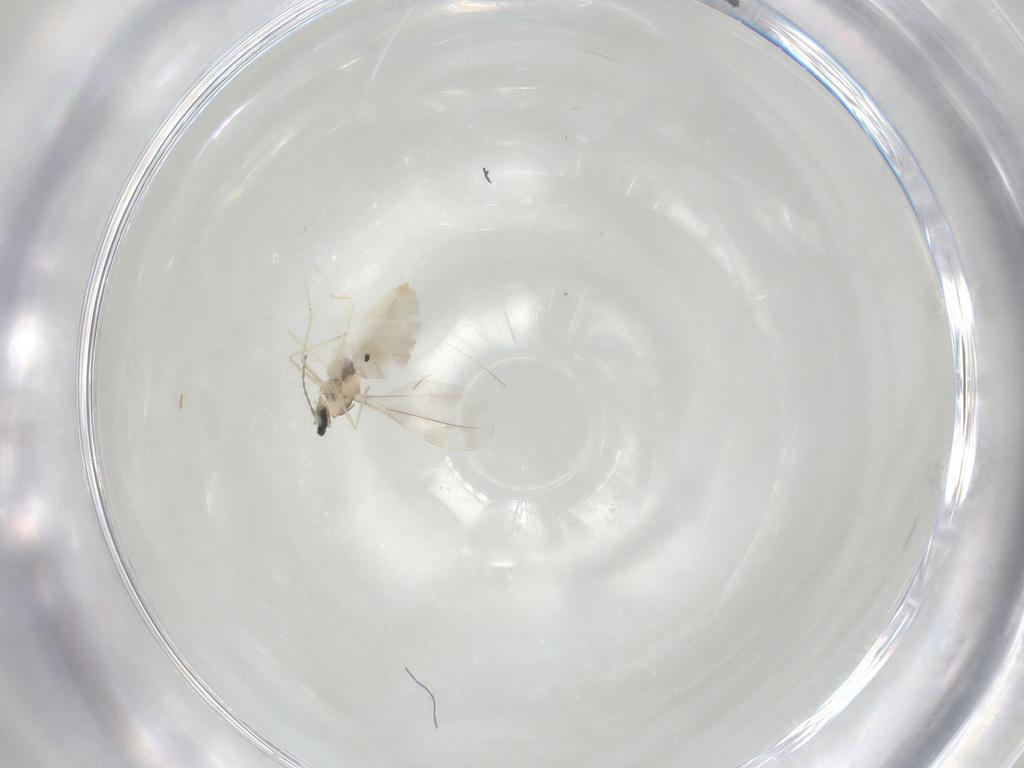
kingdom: Animalia
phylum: Arthropoda
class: Insecta
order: Diptera
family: Cecidomyiidae
